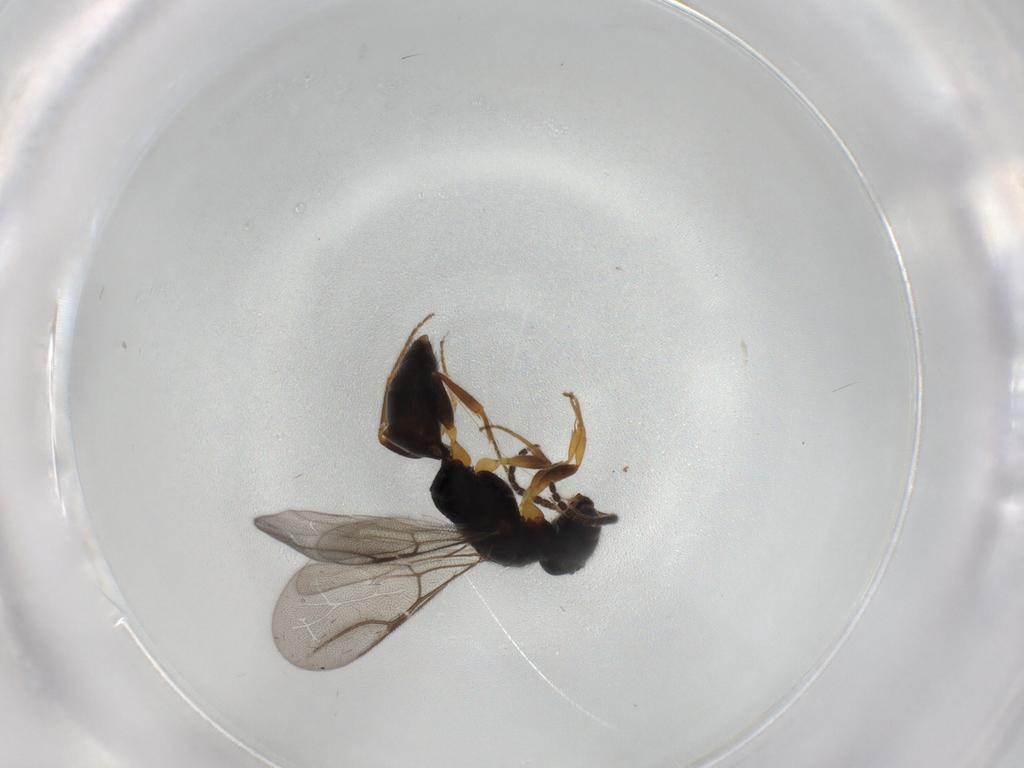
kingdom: Animalia
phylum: Arthropoda
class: Insecta
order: Hymenoptera
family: Bethylidae
